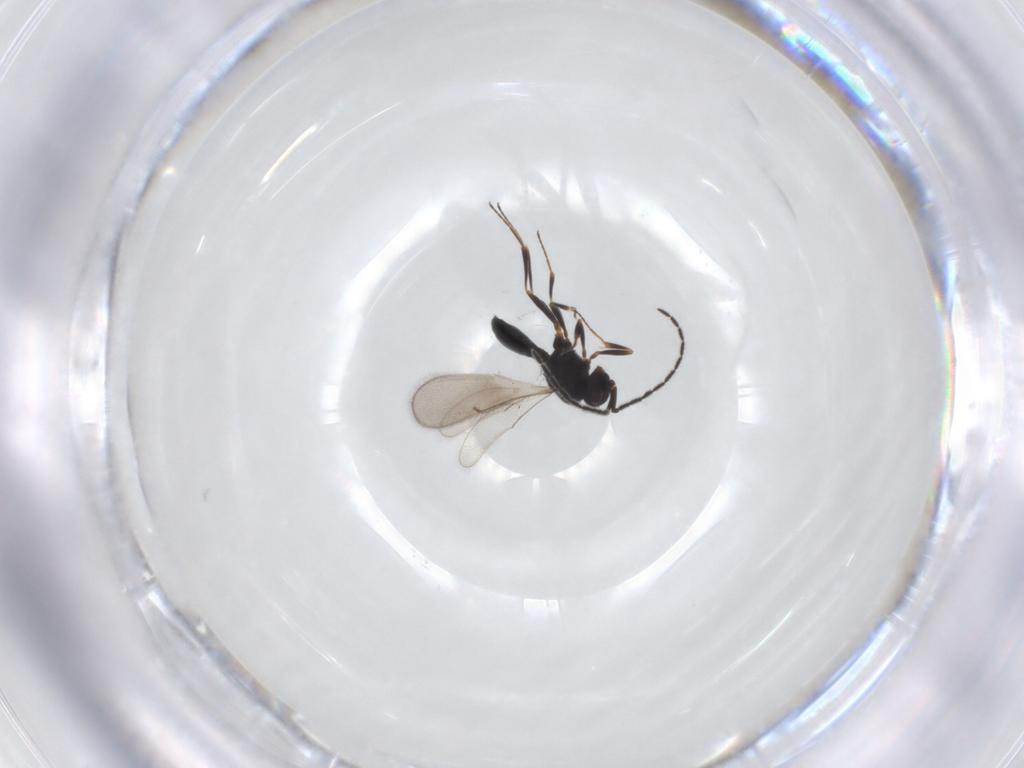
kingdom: Animalia
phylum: Arthropoda
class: Insecta
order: Hymenoptera
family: Scelionidae
